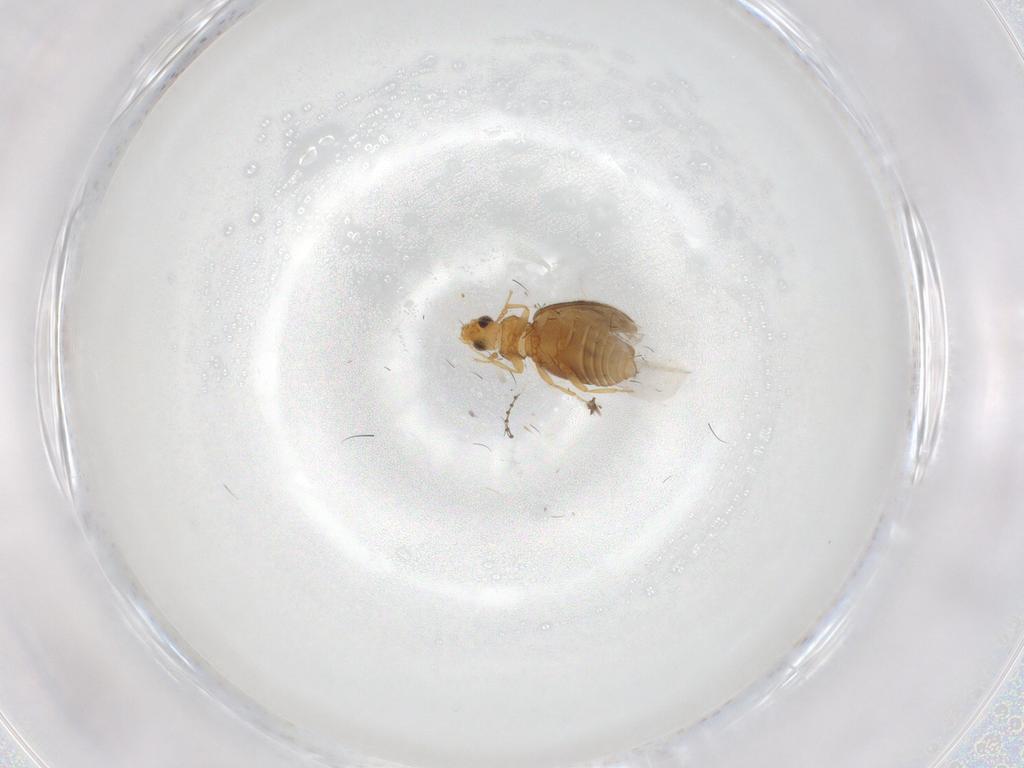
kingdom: Animalia
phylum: Arthropoda
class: Insecta
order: Coleoptera
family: Latridiidae
